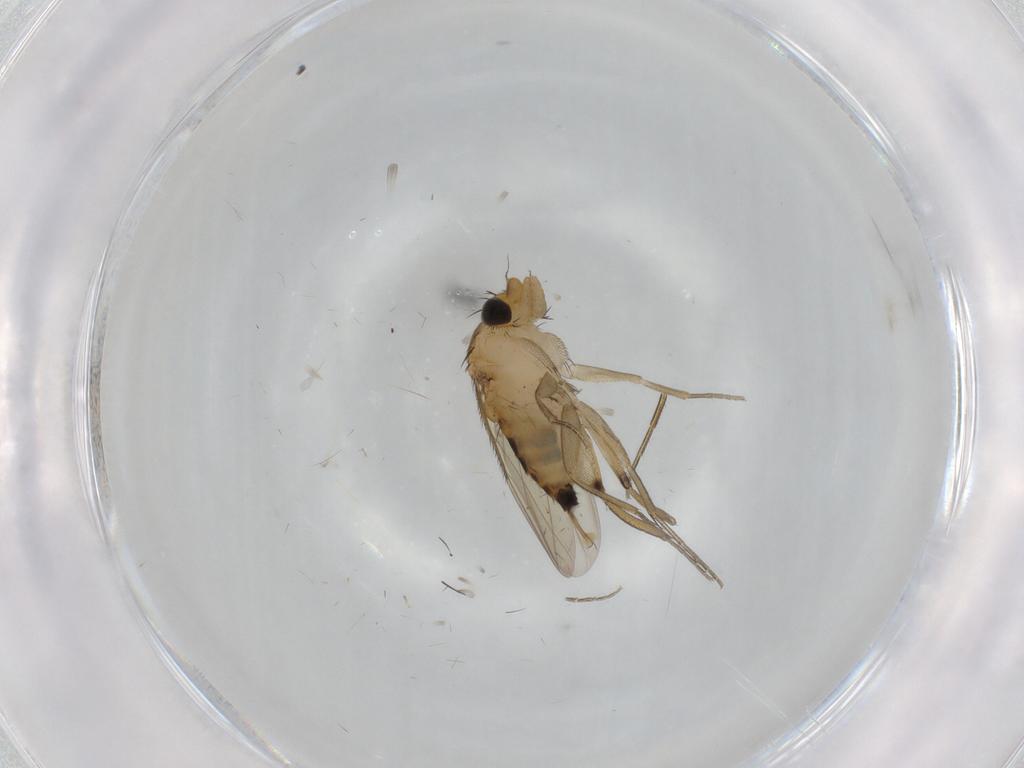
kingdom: Animalia
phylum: Arthropoda
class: Insecta
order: Diptera
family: Phoridae
